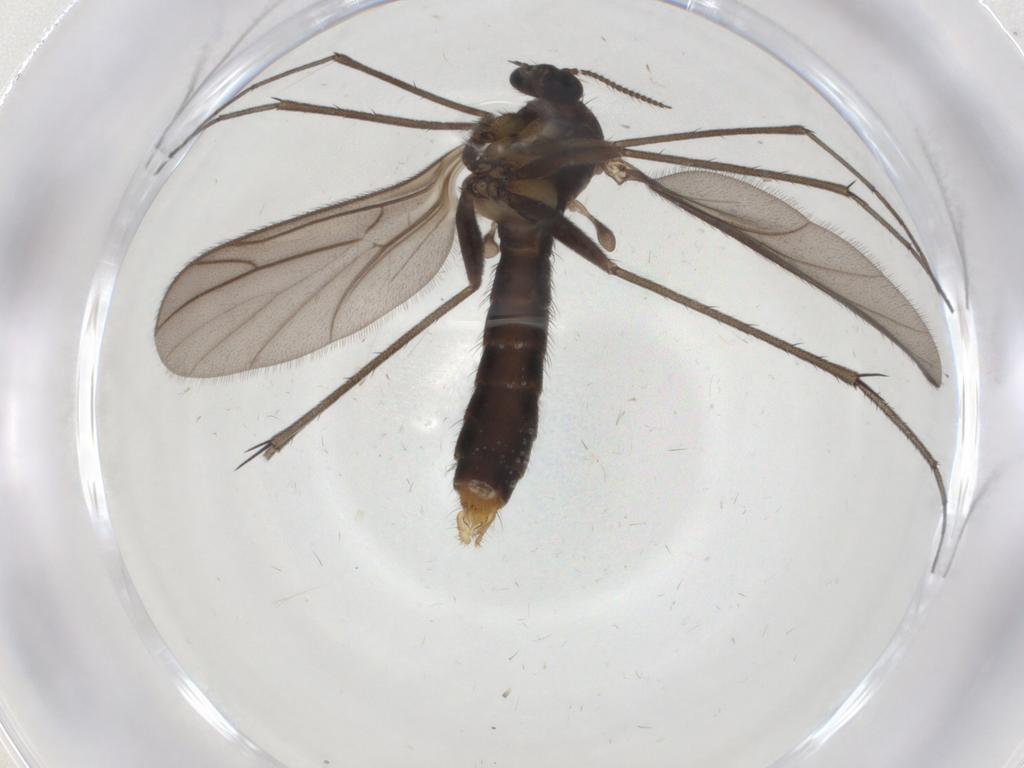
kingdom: Animalia
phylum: Arthropoda
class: Insecta
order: Diptera
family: Ditomyiidae
